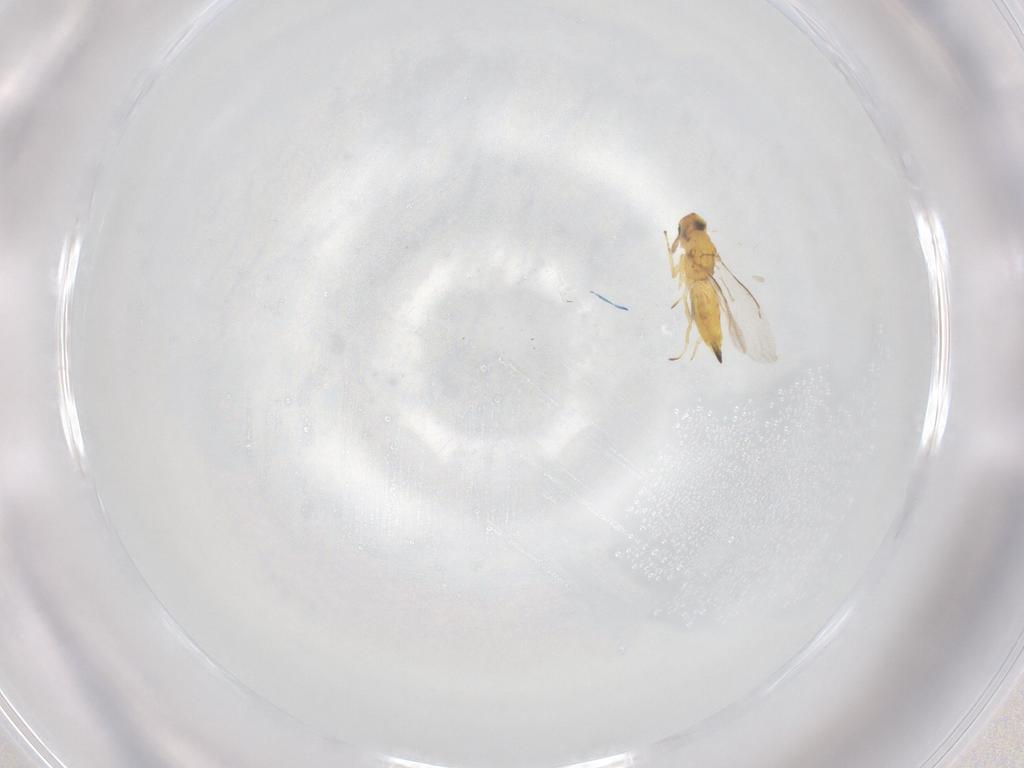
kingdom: Animalia
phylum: Arthropoda
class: Insecta
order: Hymenoptera
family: Eulophidae
